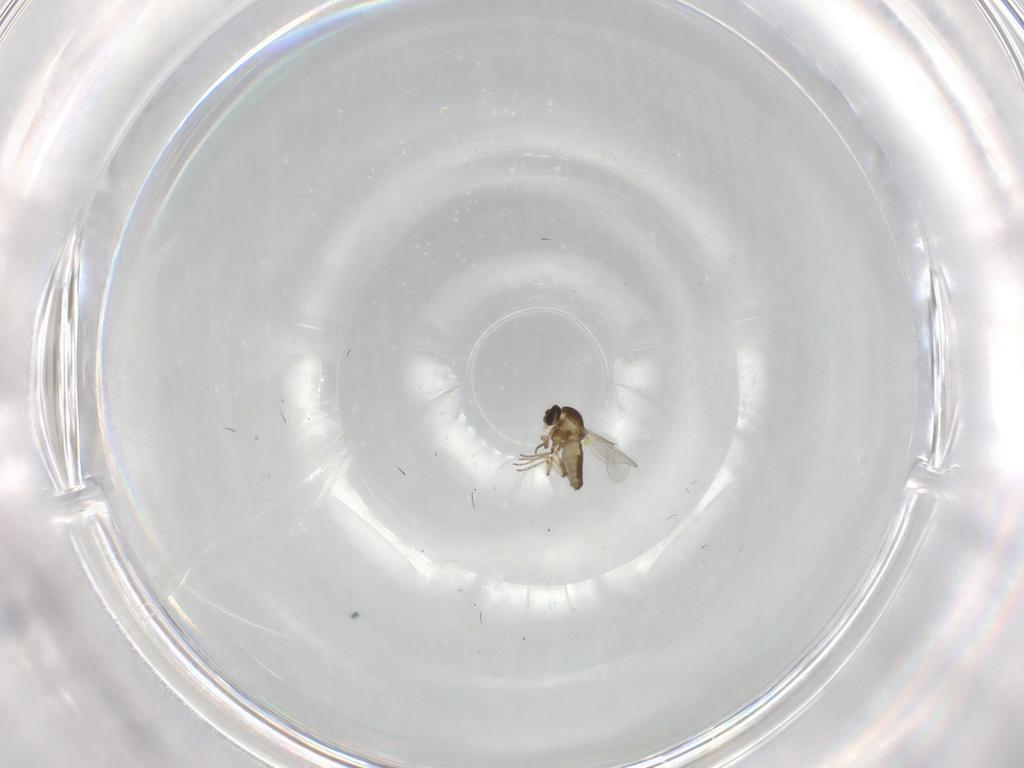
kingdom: Animalia
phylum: Arthropoda
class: Insecta
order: Diptera
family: Ceratopogonidae
